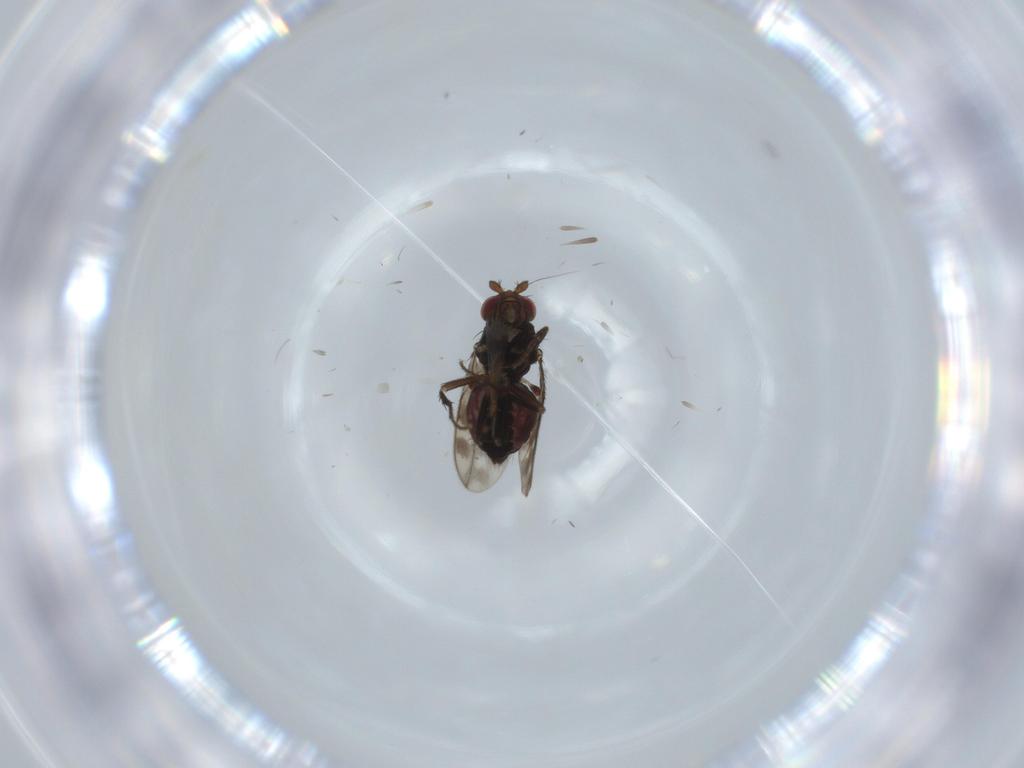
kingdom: Animalia
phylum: Arthropoda
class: Insecta
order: Diptera
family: Sphaeroceridae
